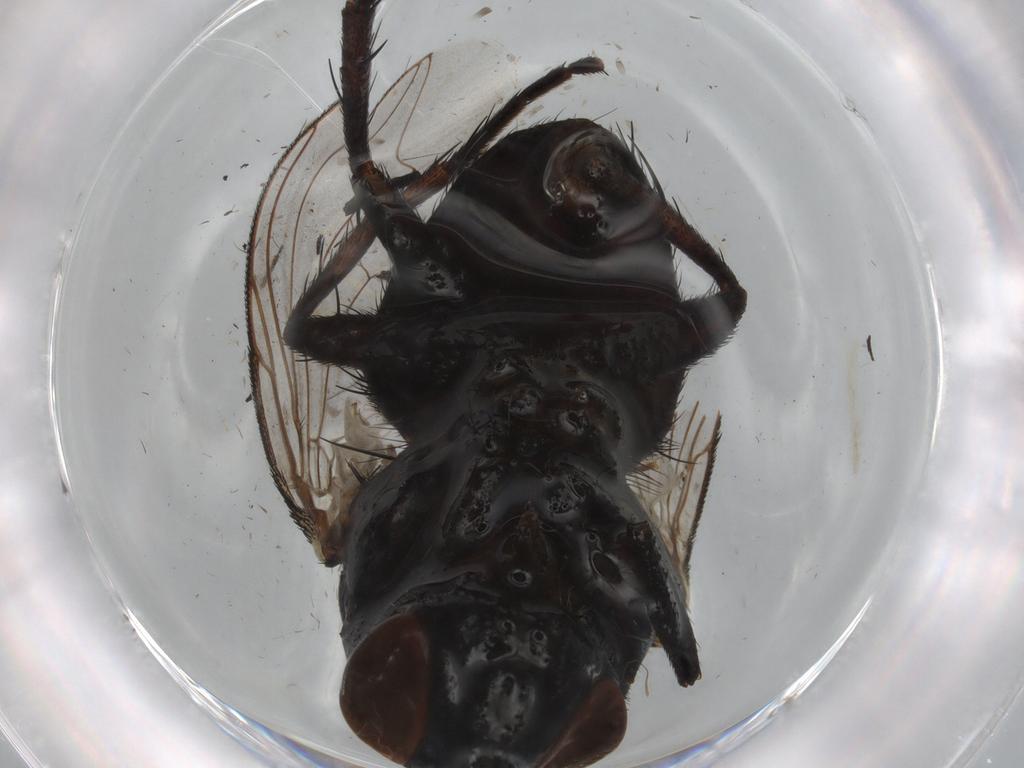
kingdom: Animalia
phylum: Arthropoda
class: Insecta
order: Diptera
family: Sarcophagidae
